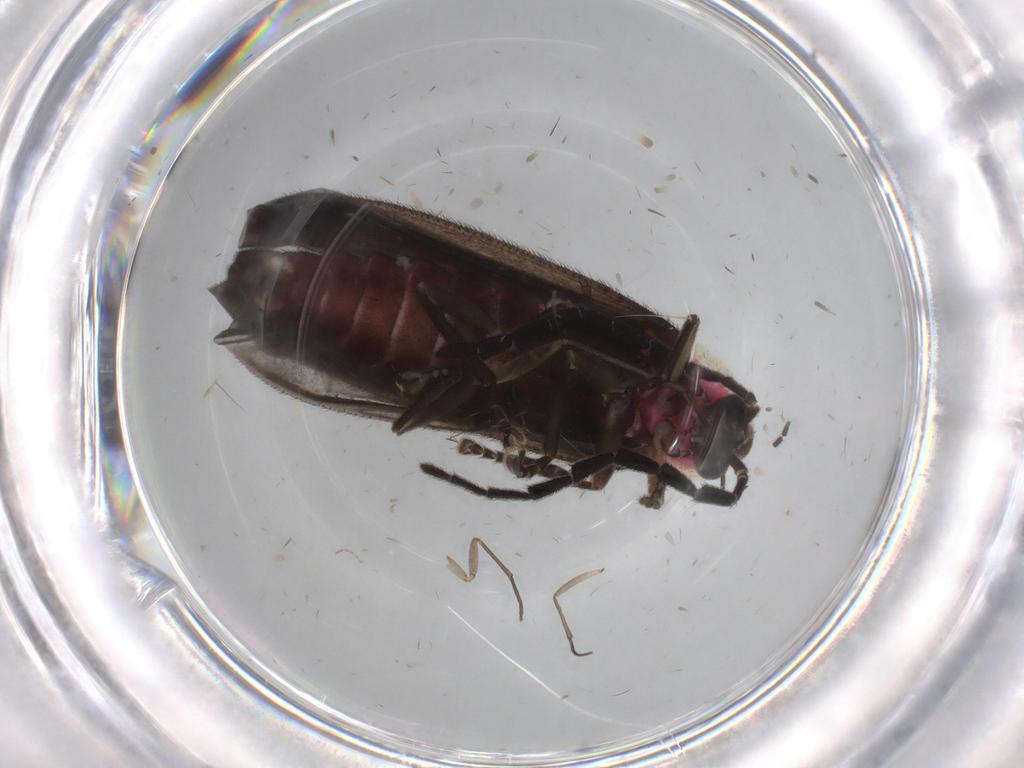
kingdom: Animalia
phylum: Arthropoda
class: Insecta
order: Coleoptera
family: Lampyridae
